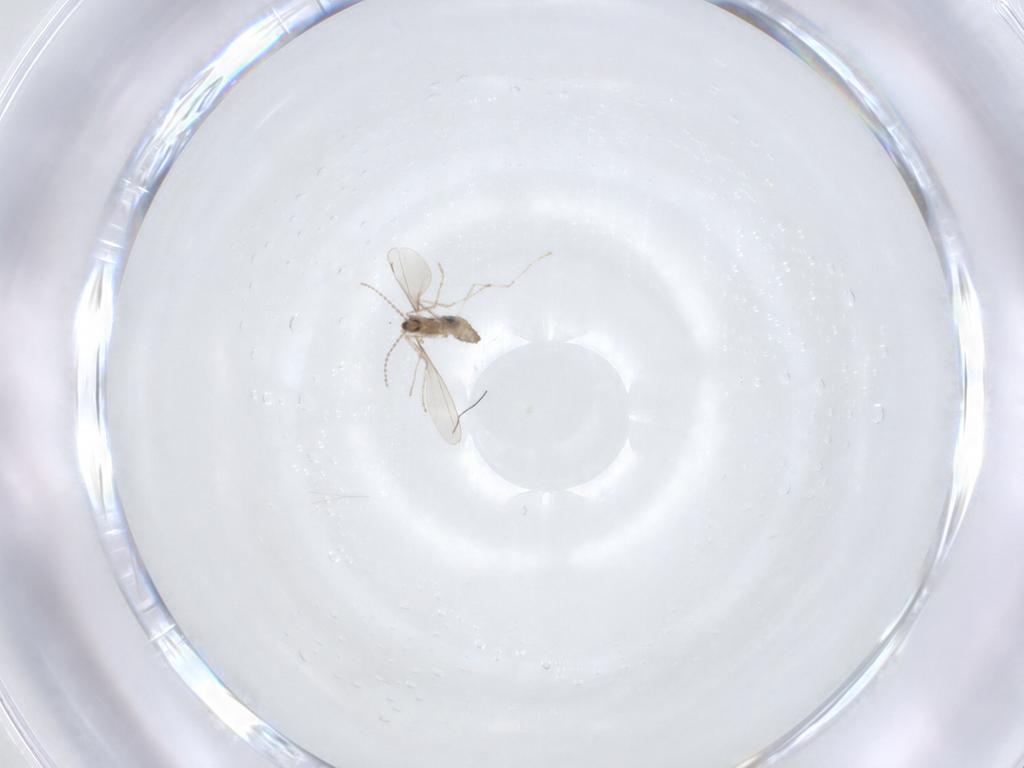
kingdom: Animalia
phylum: Arthropoda
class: Insecta
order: Diptera
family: Cecidomyiidae
